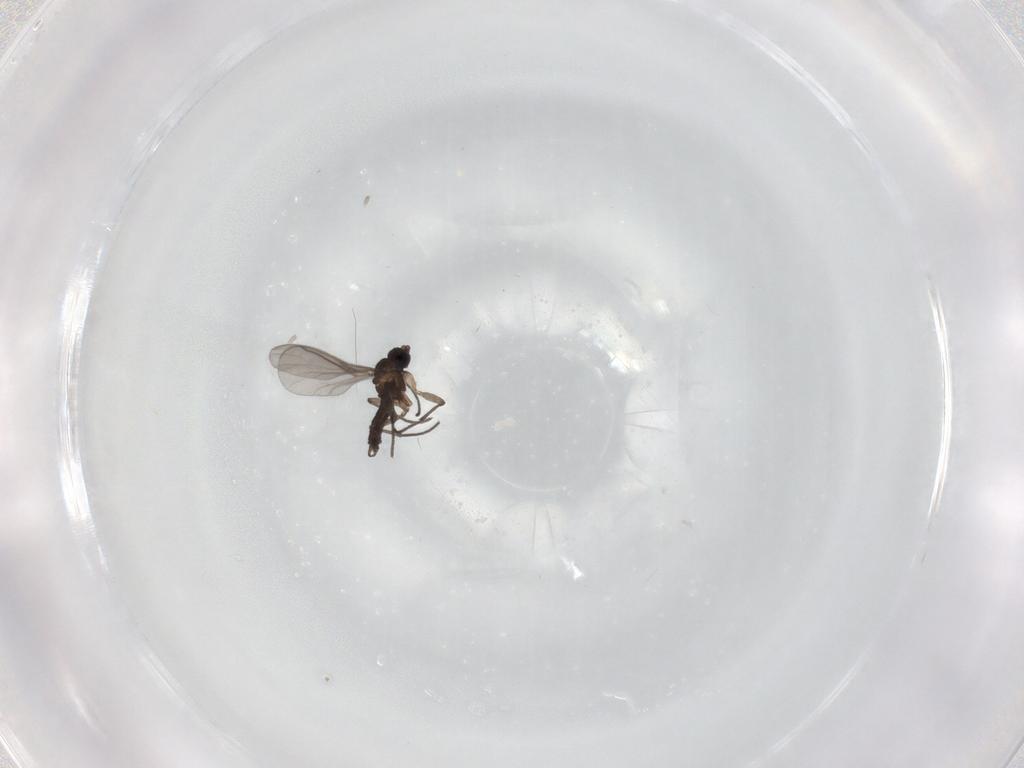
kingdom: Animalia
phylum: Arthropoda
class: Insecta
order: Diptera
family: Sciaridae
